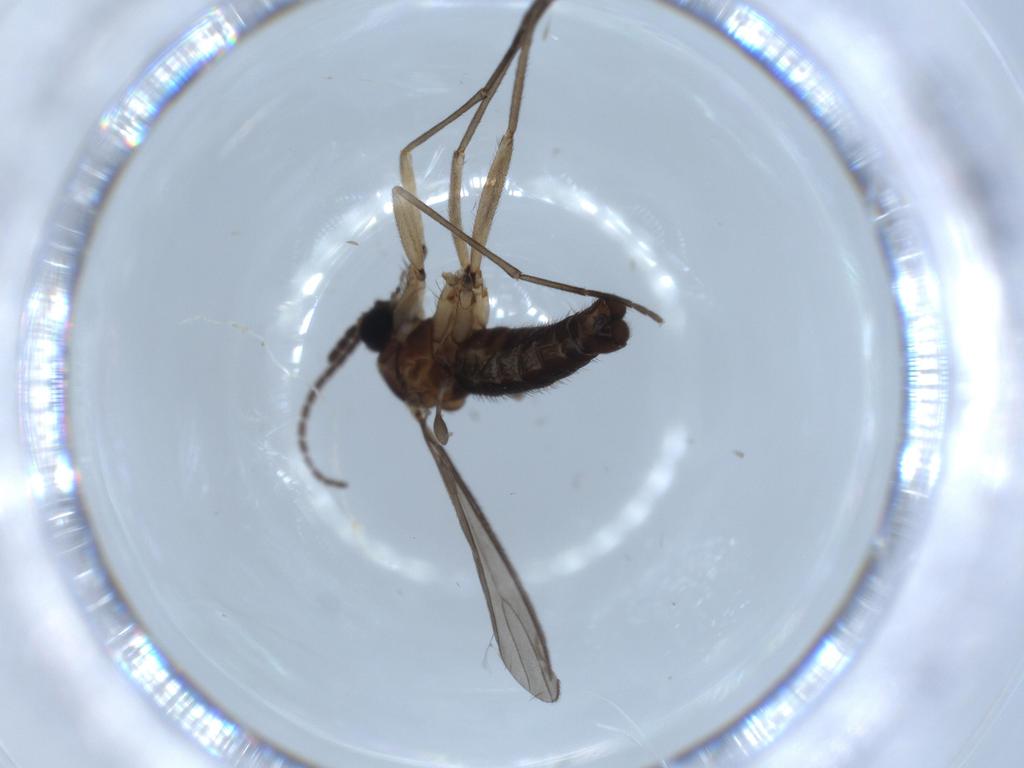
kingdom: Animalia
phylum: Arthropoda
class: Insecta
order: Diptera
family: Sciaridae
